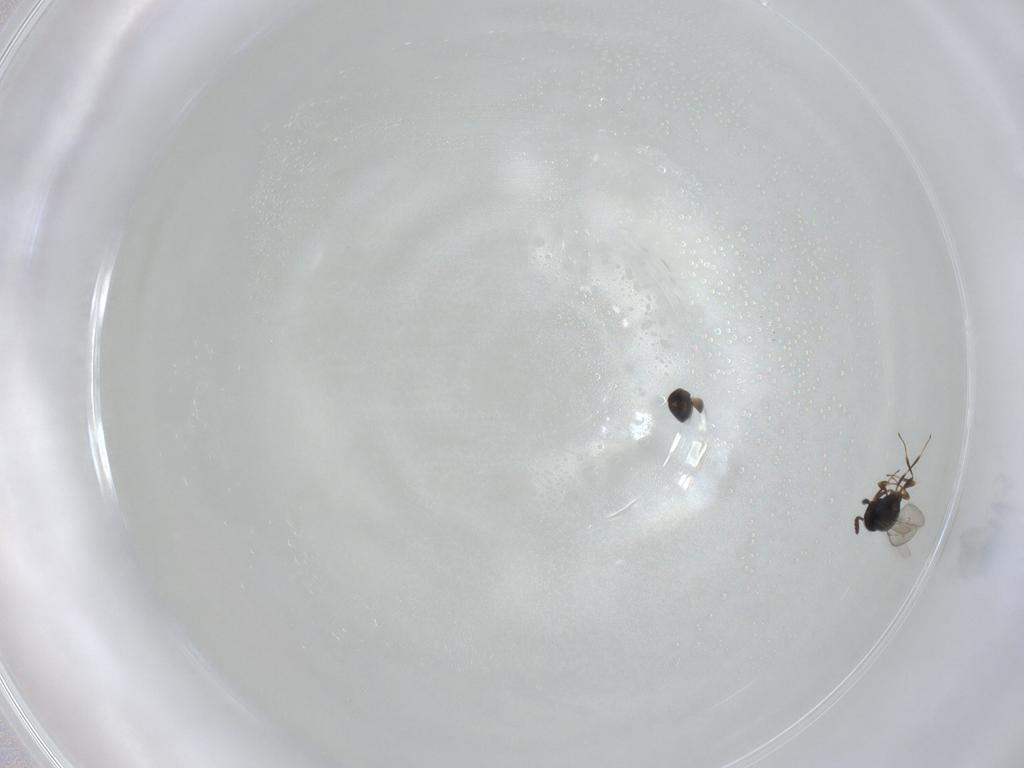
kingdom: Animalia
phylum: Arthropoda
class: Insecta
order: Hymenoptera
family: Scelionidae
